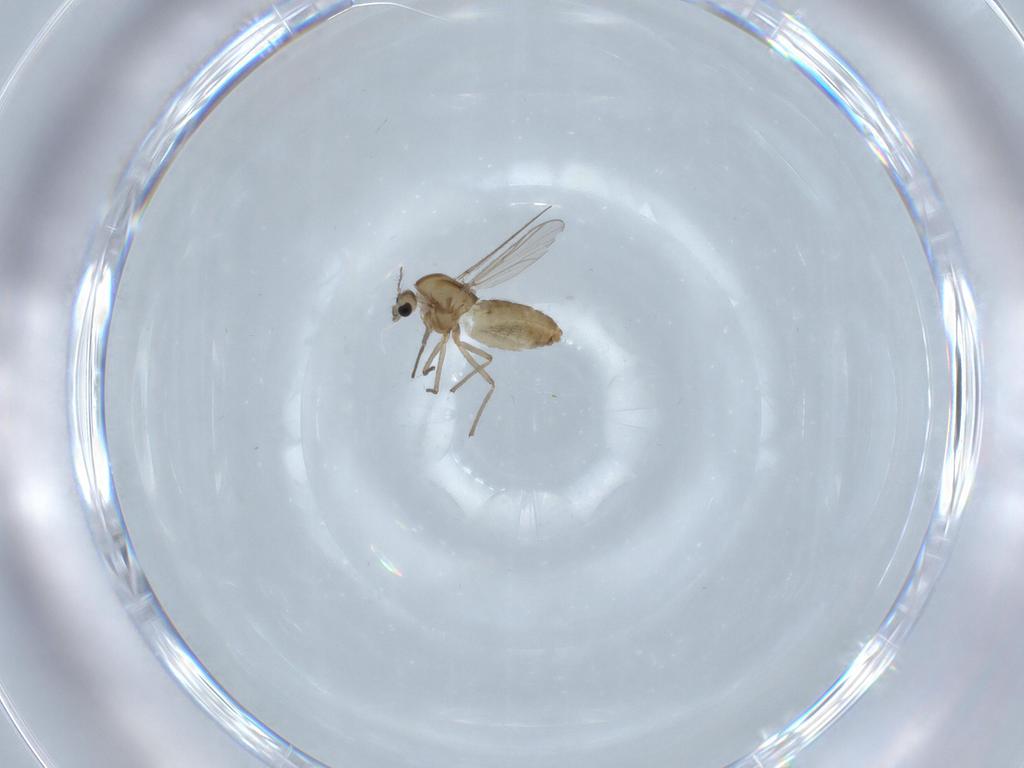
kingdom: Animalia
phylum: Arthropoda
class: Insecta
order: Diptera
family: Chironomidae
